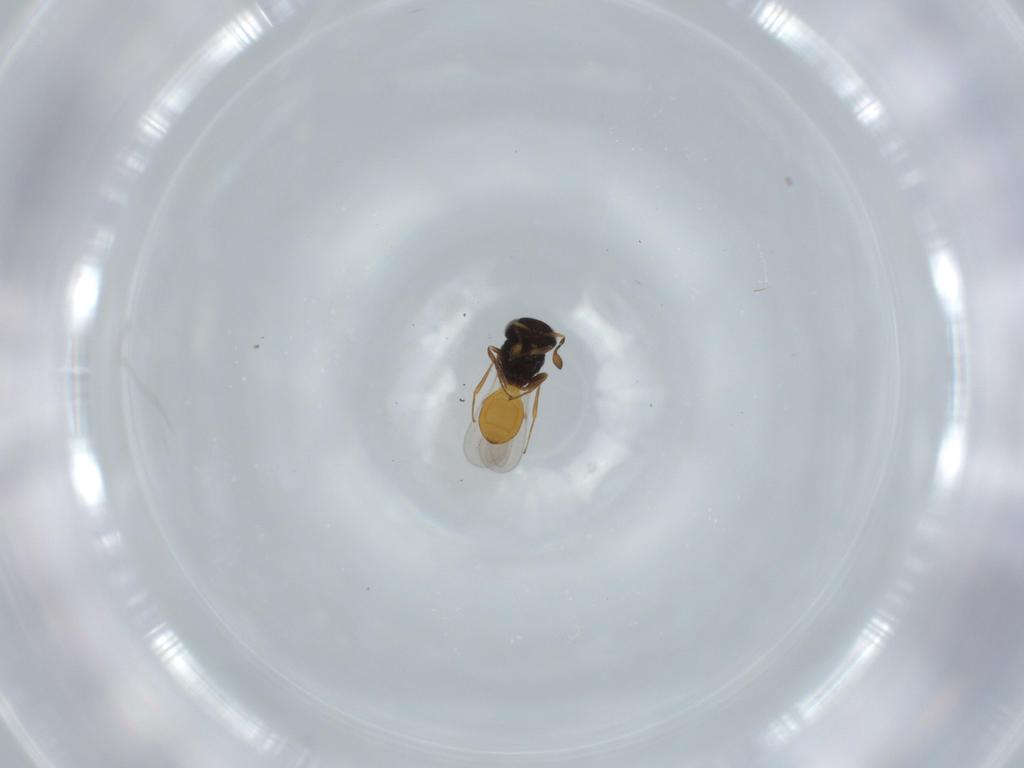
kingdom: Animalia
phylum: Arthropoda
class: Insecta
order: Hymenoptera
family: Scelionidae
